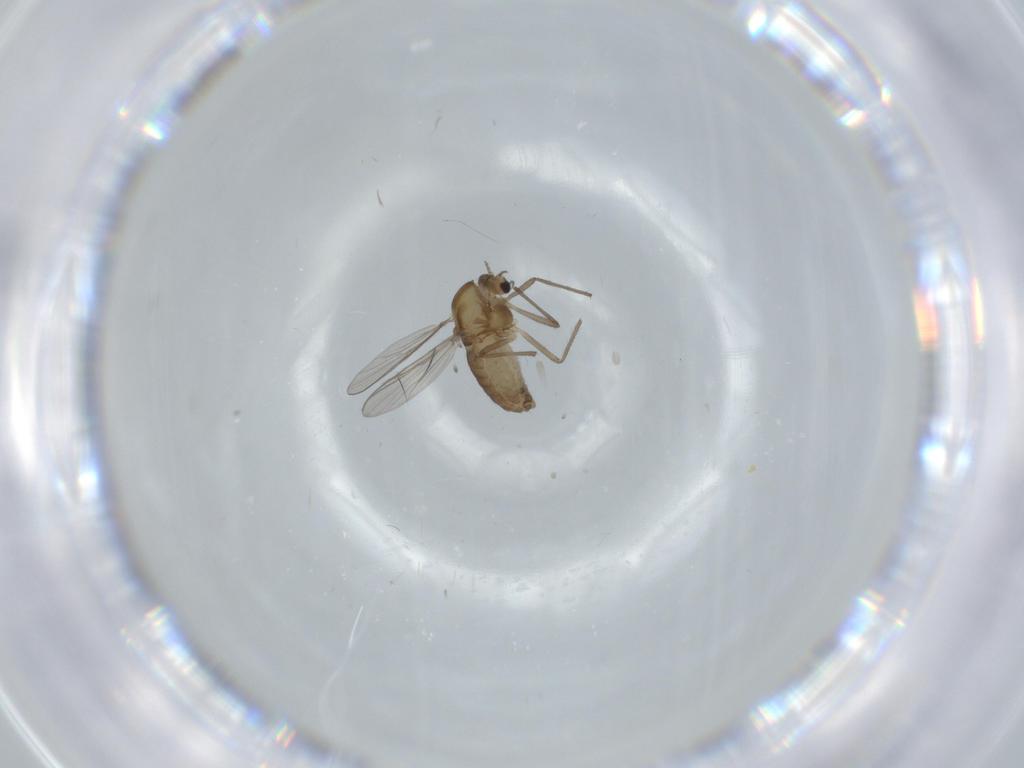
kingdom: Animalia
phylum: Arthropoda
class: Insecta
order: Diptera
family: Chironomidae
